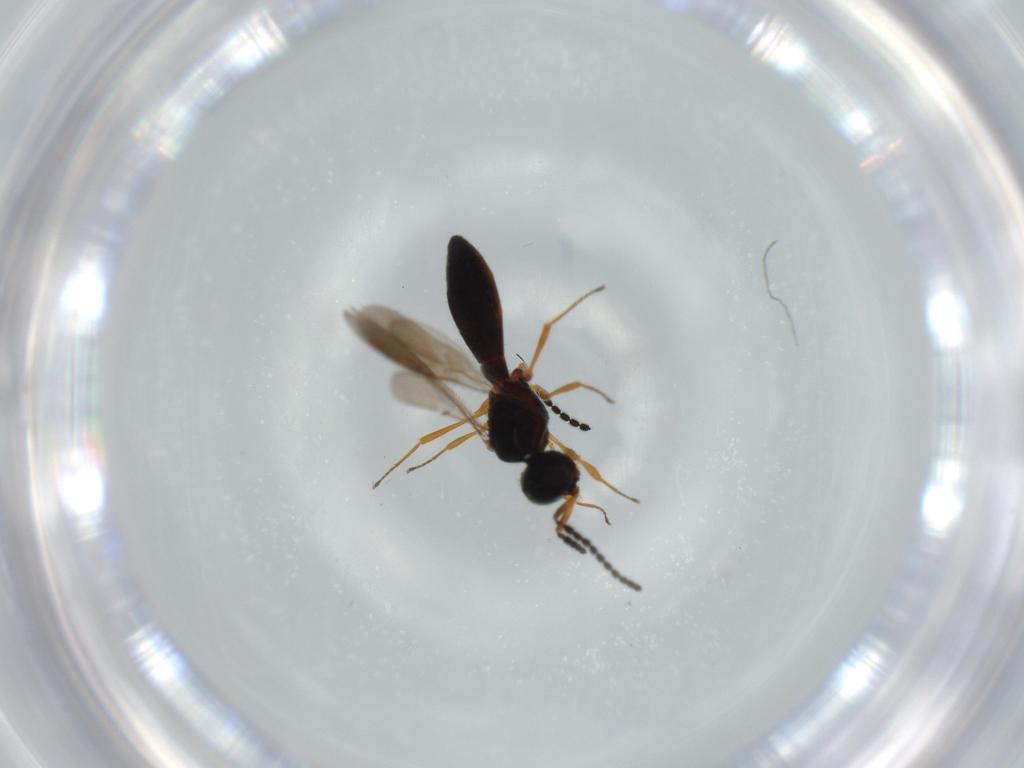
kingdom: Animalia
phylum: Arthropoda
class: Insecta
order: Hymenoptera
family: Scelionidae
